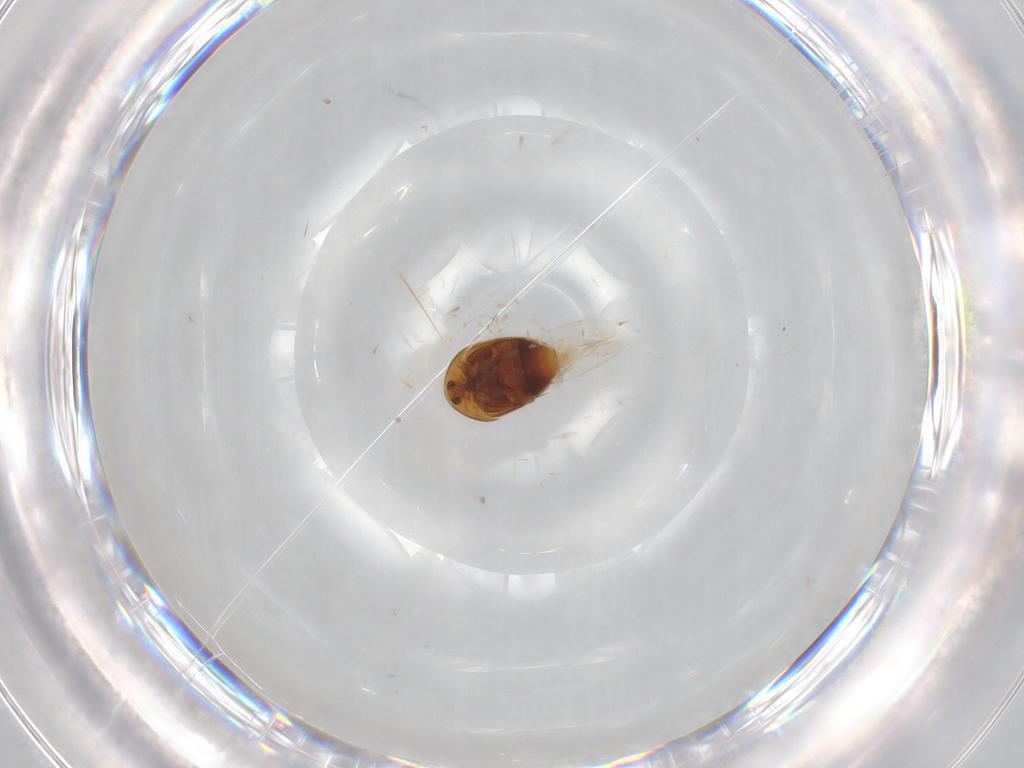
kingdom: Animalia
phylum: Arthropoda
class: Insecta
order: Coleoptera
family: Corylophidae
